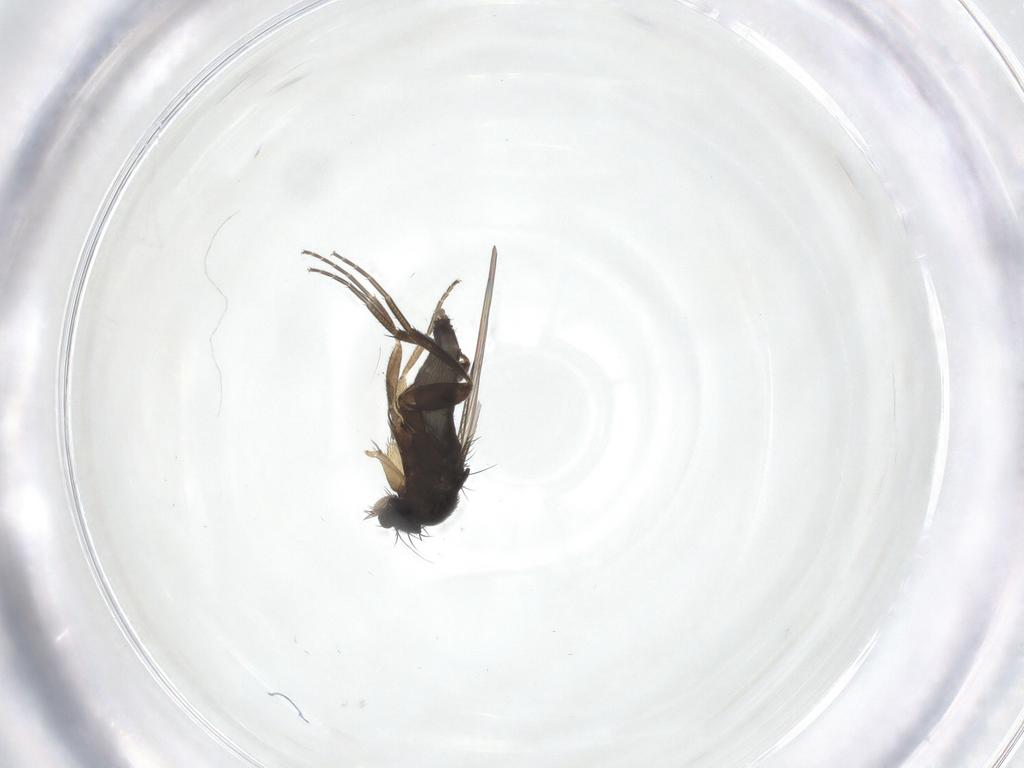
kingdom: Animalia
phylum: Arthropoda
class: Insecta
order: Diptera
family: Phoridae
